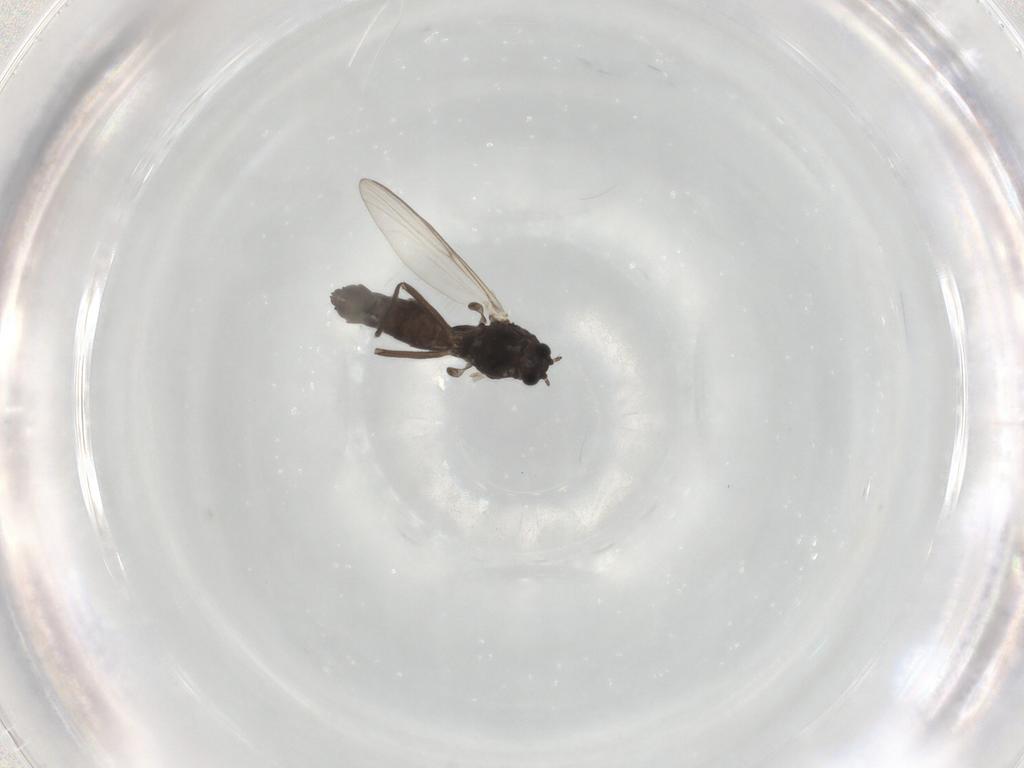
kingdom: Animalia
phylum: Arthropoda
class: Insecta
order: Diptera
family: Chironomidae
